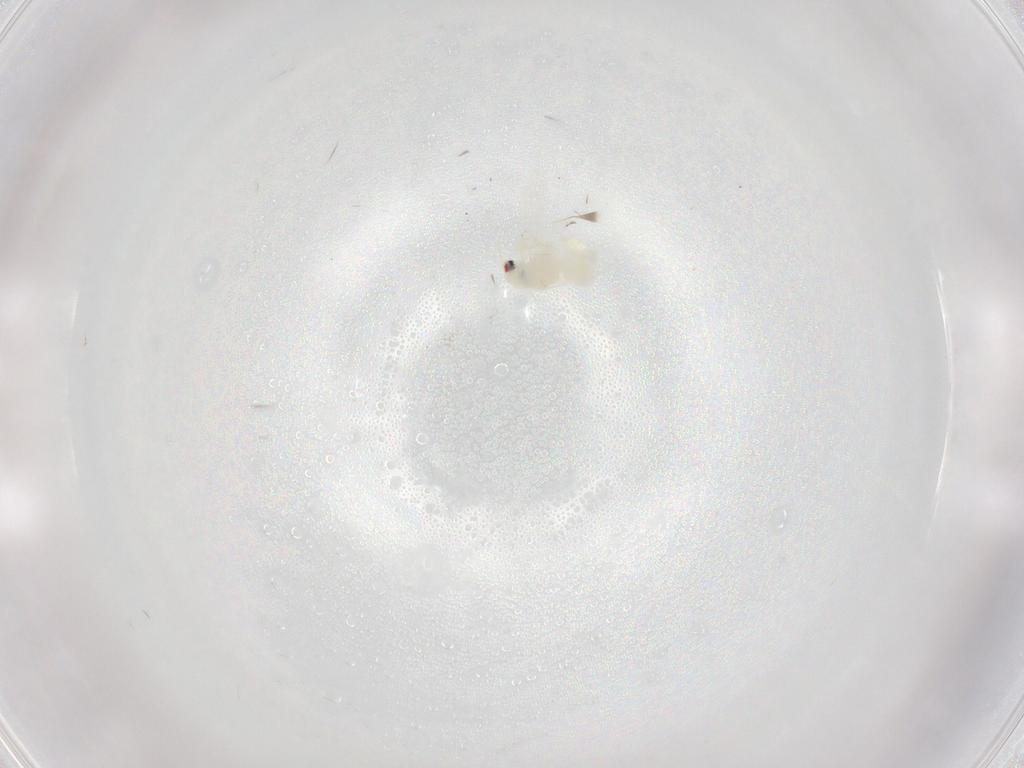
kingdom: Animalia
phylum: Arthropoda
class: Insecta
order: Hemiptera
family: Aleyrodidae
